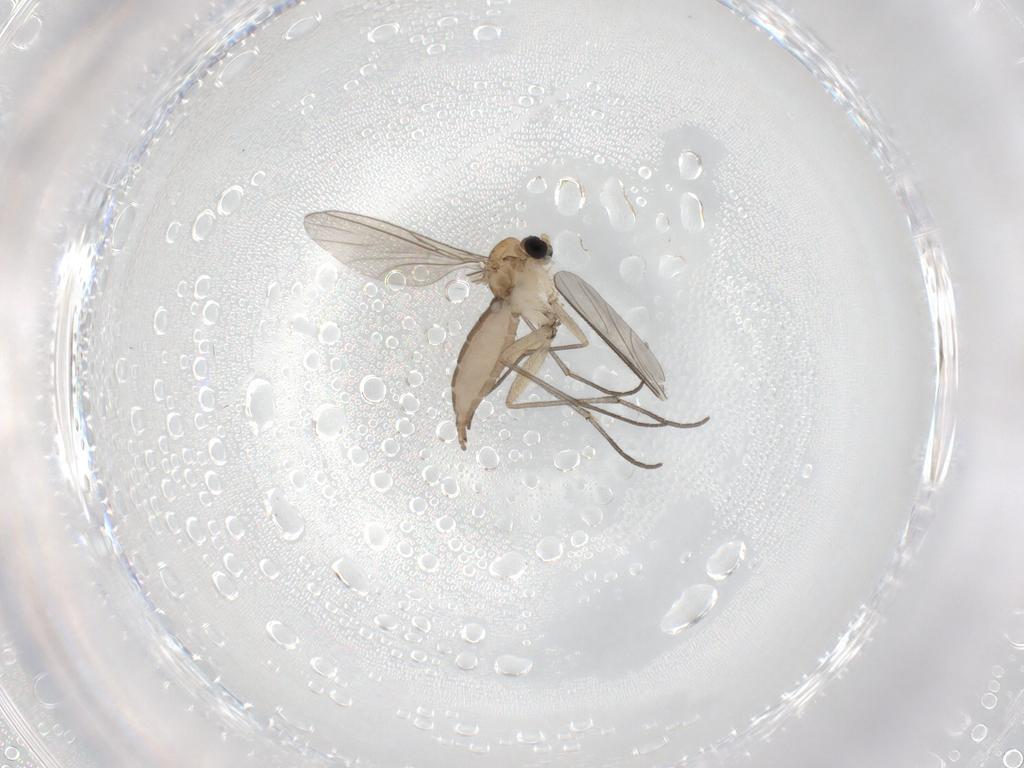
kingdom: Animalia
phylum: Arthropoda
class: Insecta
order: Diptera
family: Sciaridae
